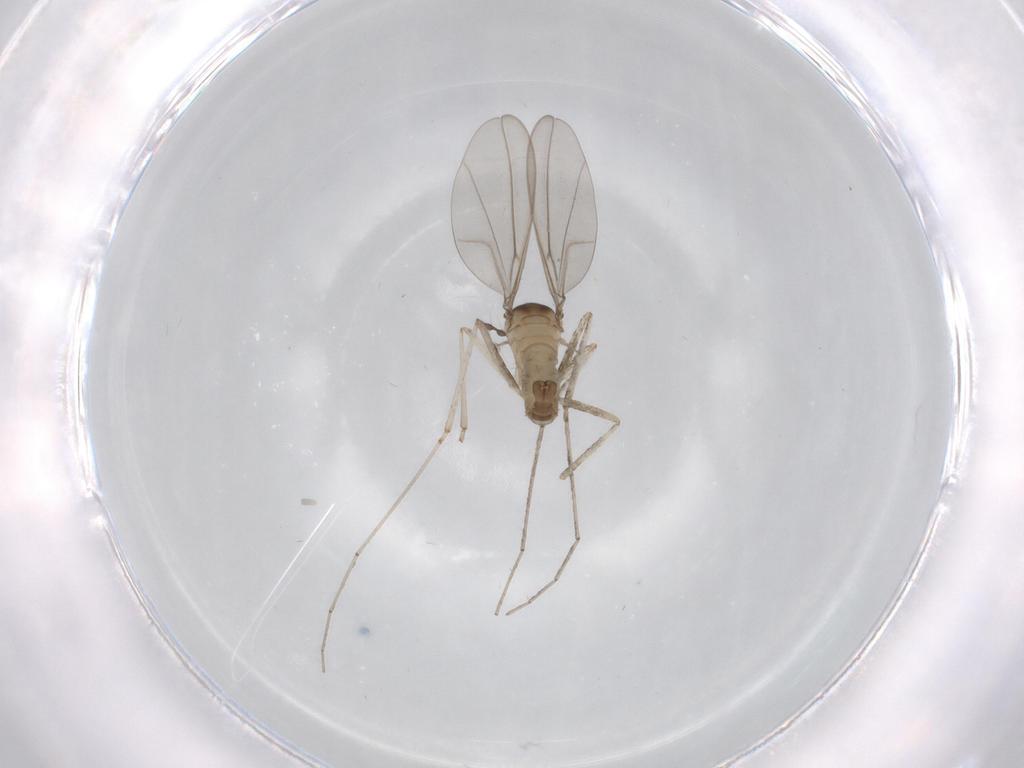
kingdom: Animalia
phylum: Arthropoda
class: Insecta
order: Diptera
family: Cecidomyiidae
